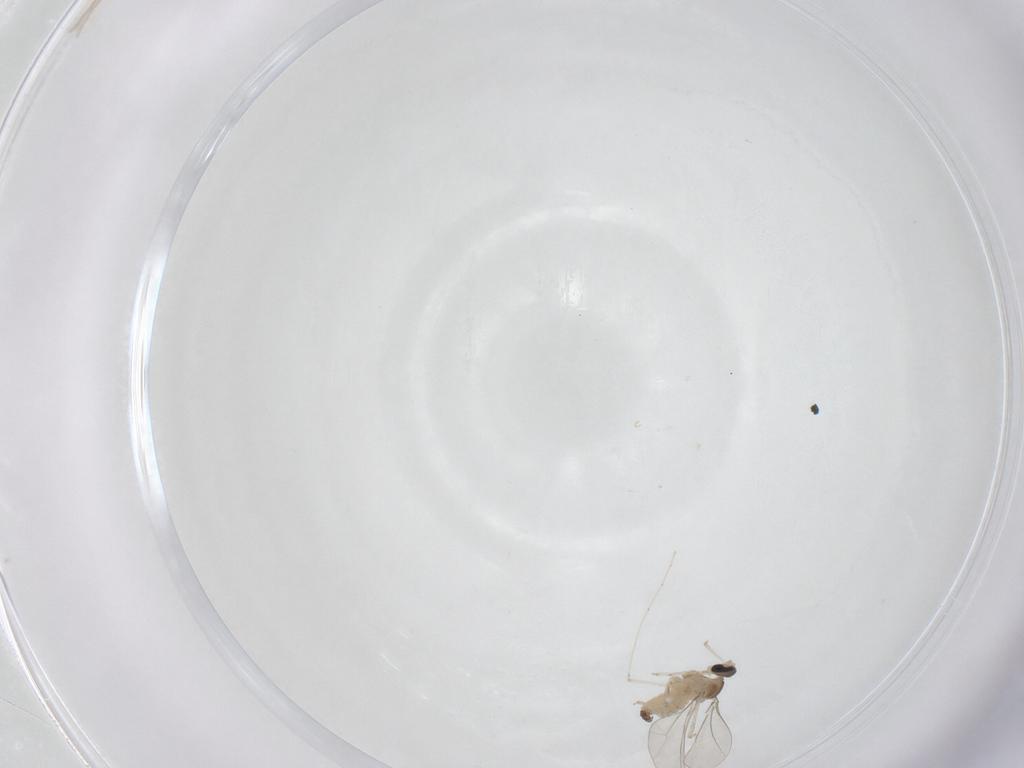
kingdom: Animalia
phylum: Arthropoda
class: Insecta
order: Diptera
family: Cecidomyiidae
